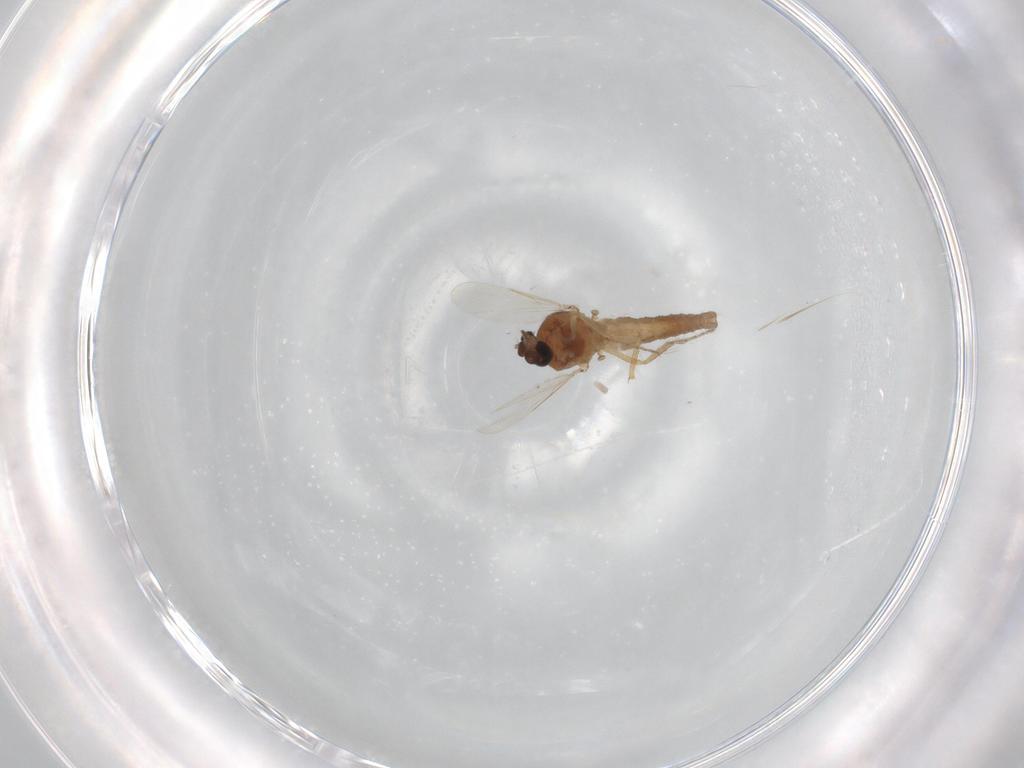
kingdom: Animalia
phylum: Arthropoda
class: Insecta
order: Diptera
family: Ceratopogonidae
